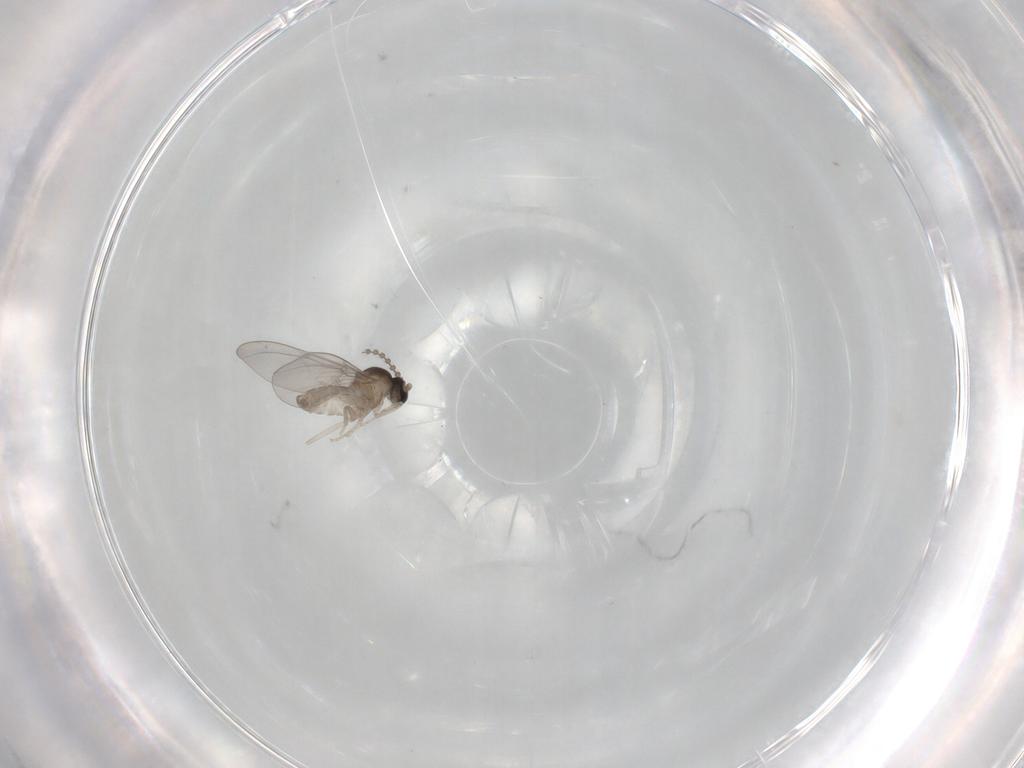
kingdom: Animalia
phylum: Arthropoda
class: Insecta
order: Diptera
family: Cecidomyiidae
